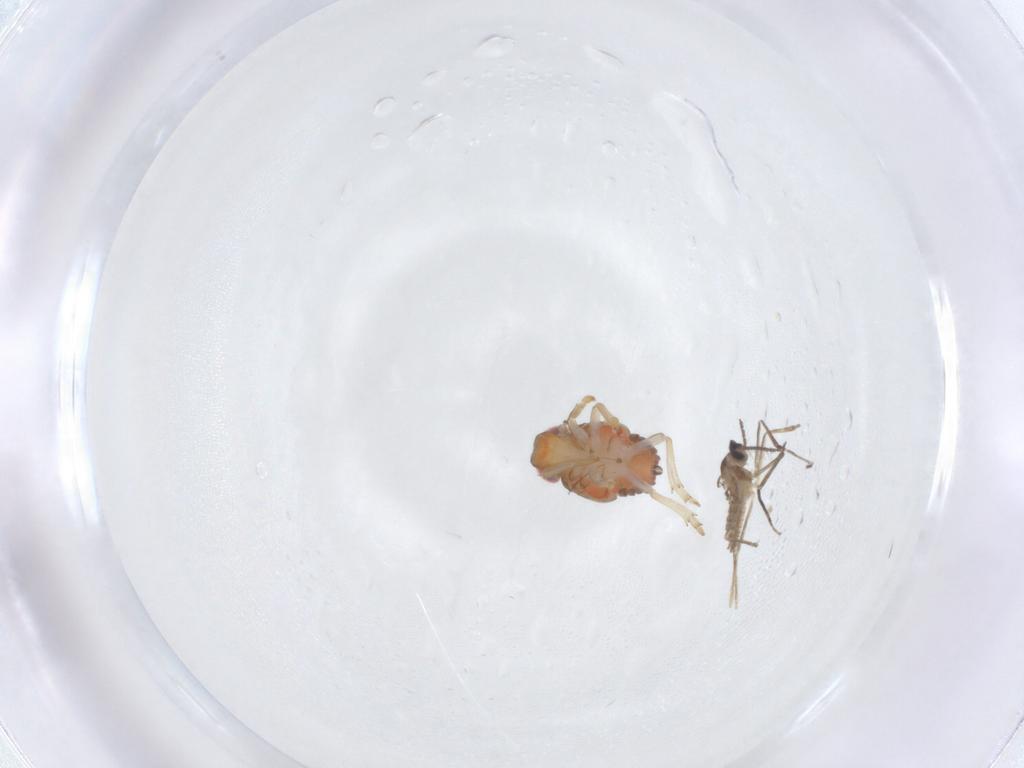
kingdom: Animalia
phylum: Arthropoda
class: Insecta
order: Diptera
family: Cecidomyiidae
